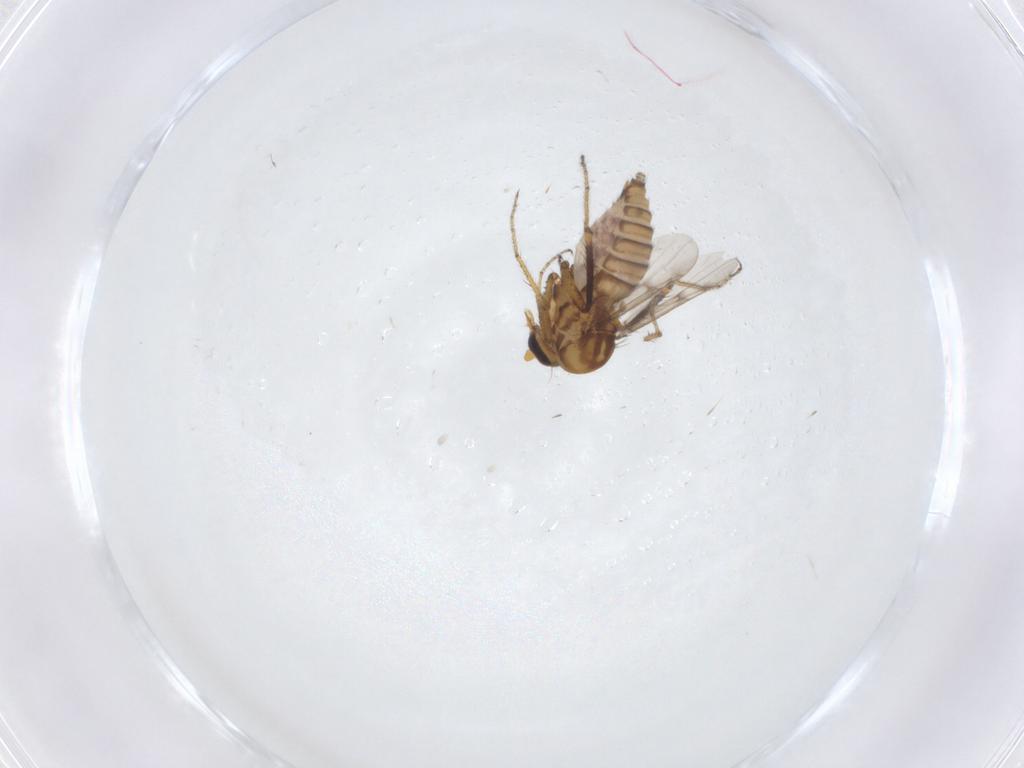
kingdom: Animalia
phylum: Arthropoda
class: Insecta
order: Diptera
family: Ceratopogonidae
